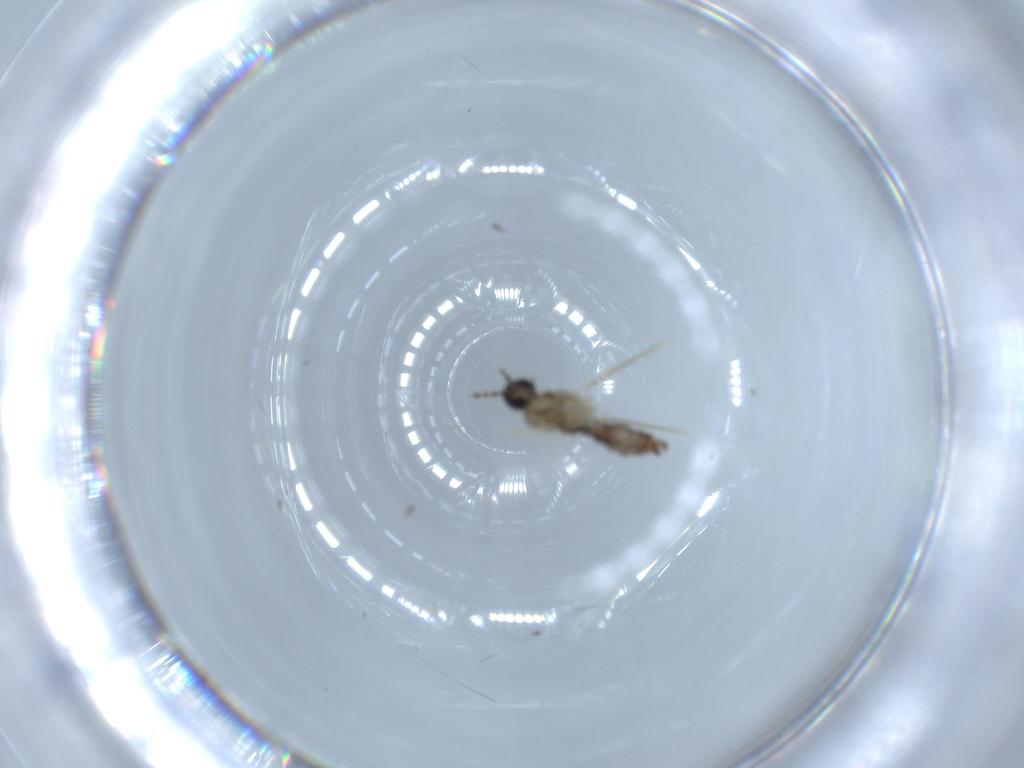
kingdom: Animalia
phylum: Arthropoda
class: Insecta
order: Diptera
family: Cecidomyiidae
